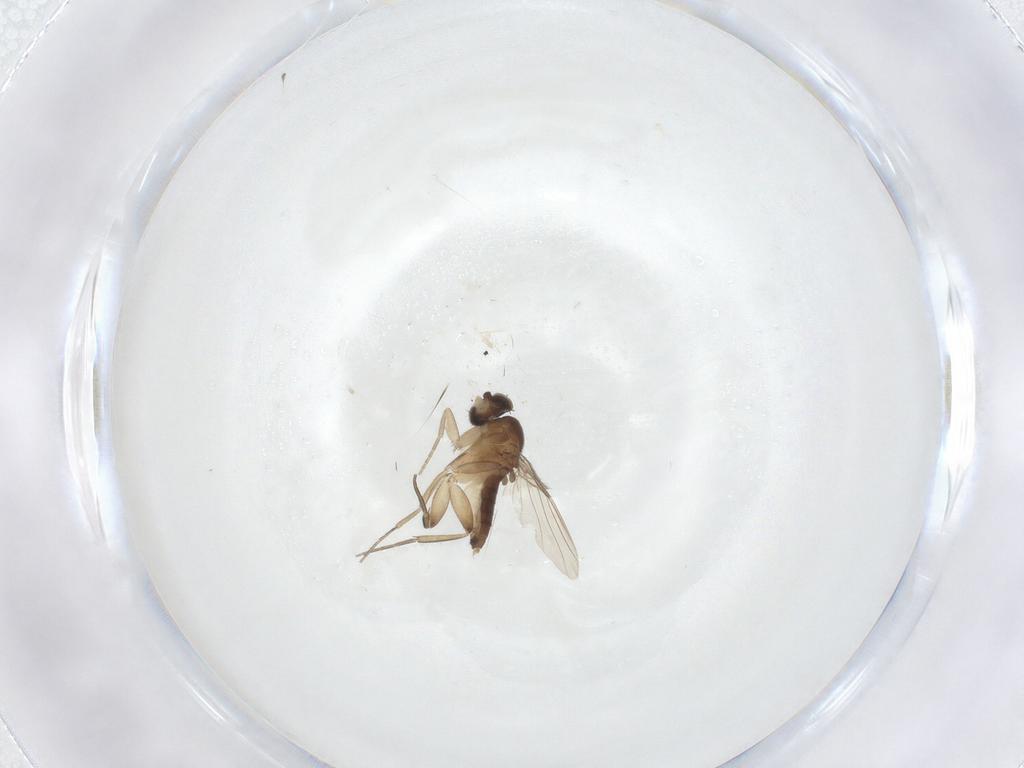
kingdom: Animalia
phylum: Arthropoda
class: Insecta
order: Diptera
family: Phoridae
